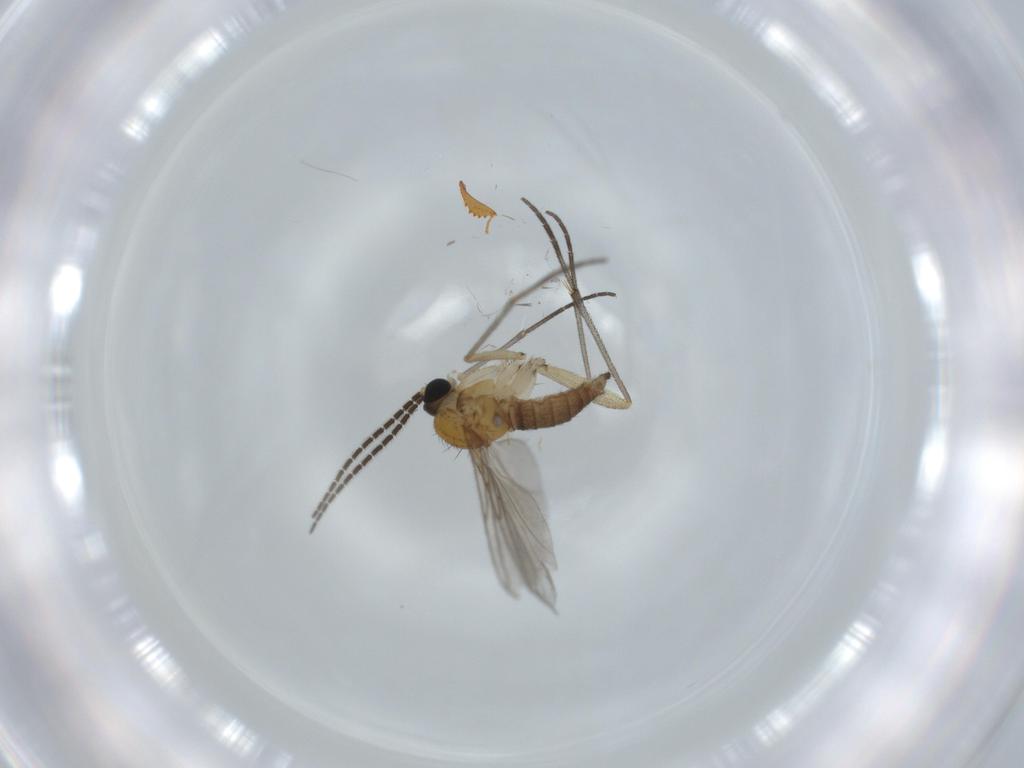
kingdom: Animalia
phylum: Arthropoda
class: Insecta
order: Diptera
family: Sciaridae
